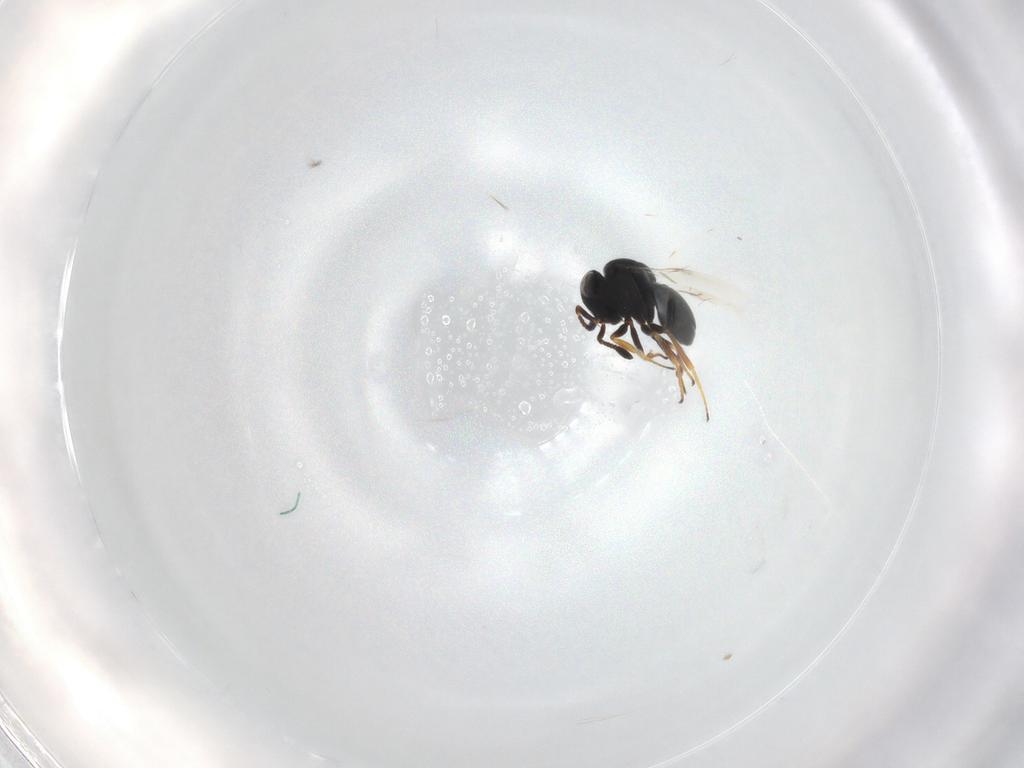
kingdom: Animalia
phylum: Arthropoda
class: Insecta
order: Hymenoptera
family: Scelionidae
